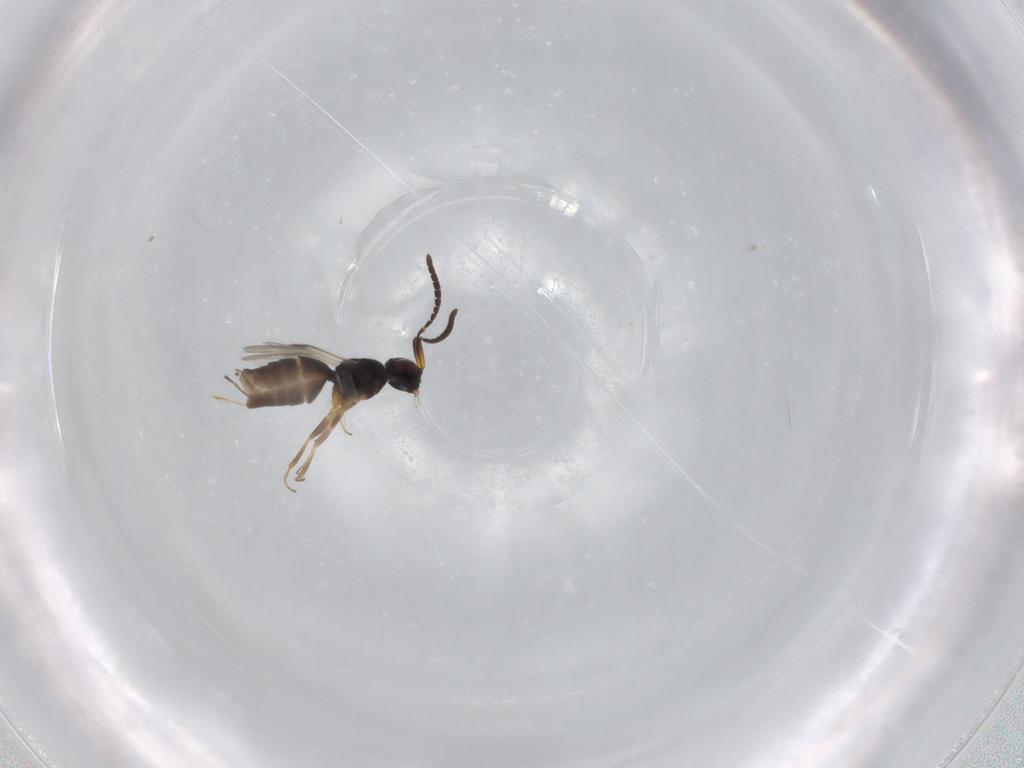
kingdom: Animalia
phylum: Arthropoda
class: Insecta
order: Hymenoptera
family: Megaspilidae
